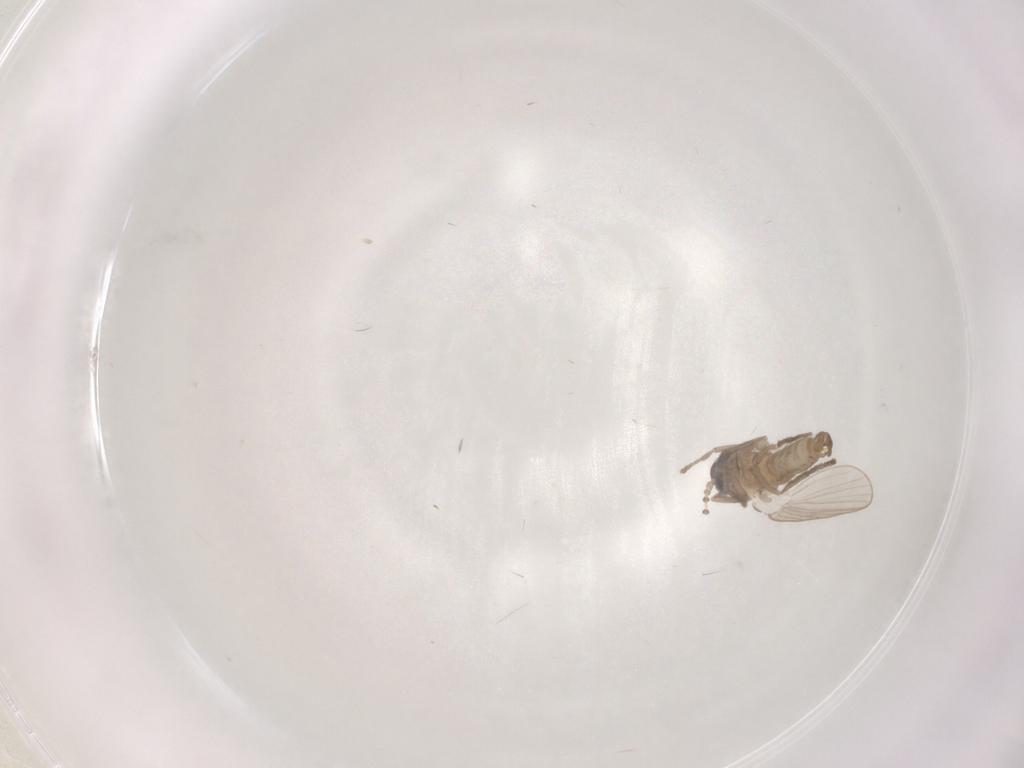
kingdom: Animalia
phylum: Arthropoda
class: Insecta
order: Diptera
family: Psychodidae
